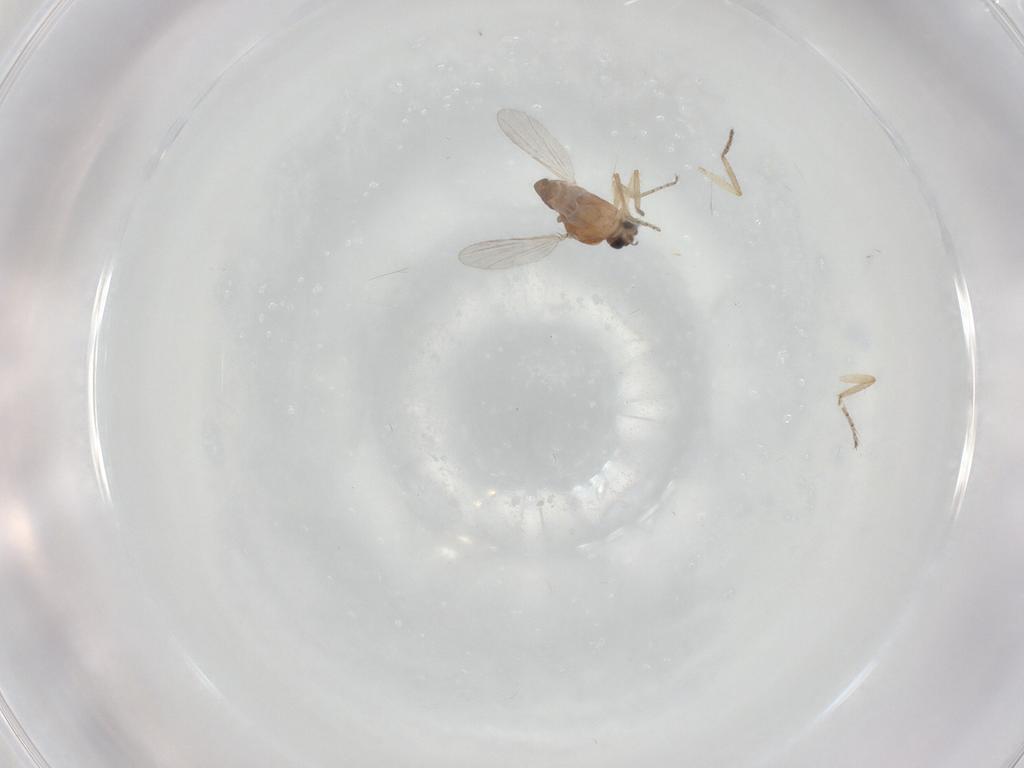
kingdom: Animalia
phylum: Arthropoda
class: Insecta
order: Diptera
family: Ceratopogonidae
